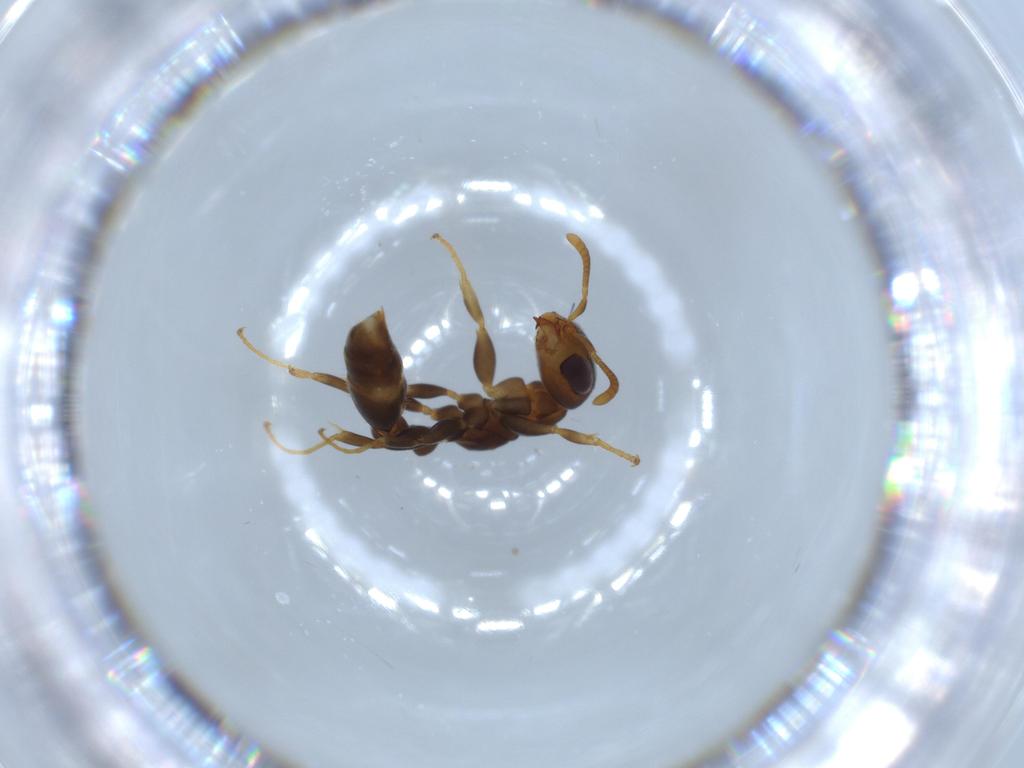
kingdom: Animalia
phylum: Arthropoda
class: Insecta
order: Hymenoptera
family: Formicidae
